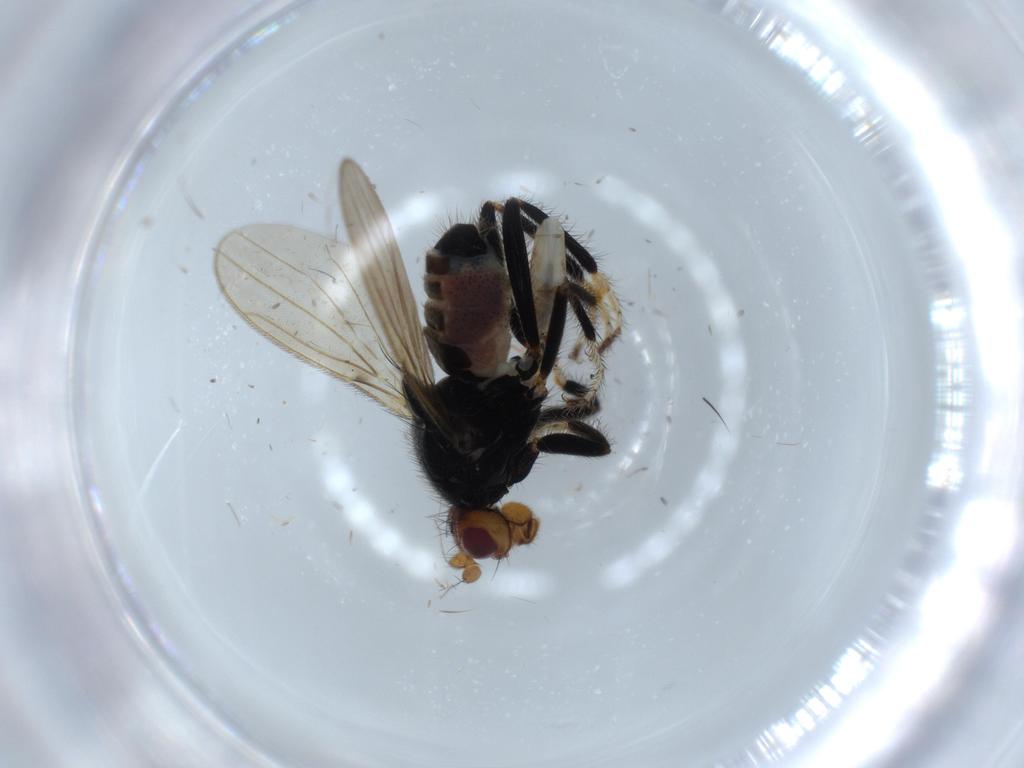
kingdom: Animalia
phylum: Arthropoda
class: Insecta
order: Diptera
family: Sphaeroceridae
